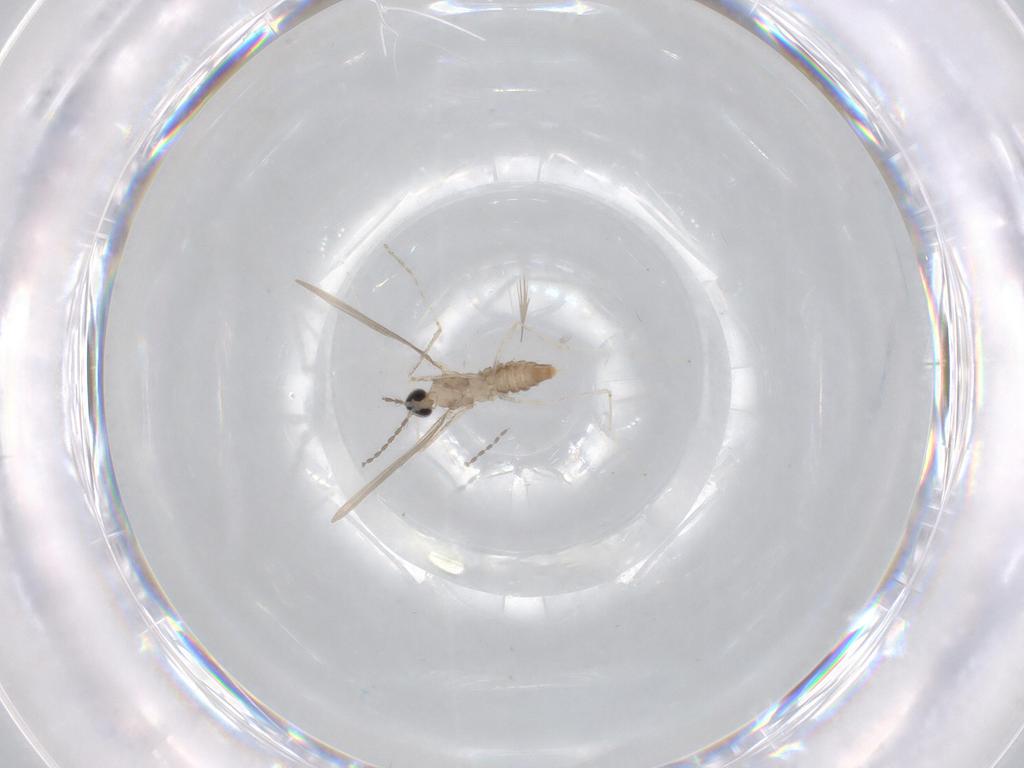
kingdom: Animalia
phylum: Arthropoda
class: Insecta
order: Diptera
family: Cecidomyiidae
